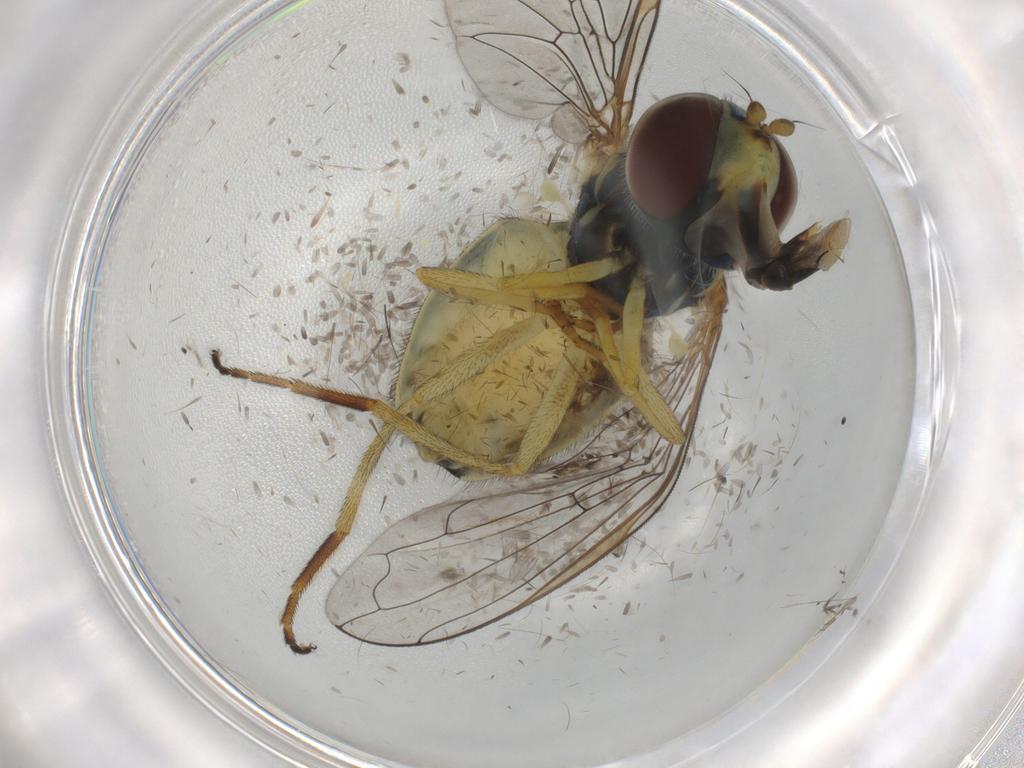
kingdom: Animalia
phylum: Arthropoda
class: Insecta
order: Diptera
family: Syrphidae
